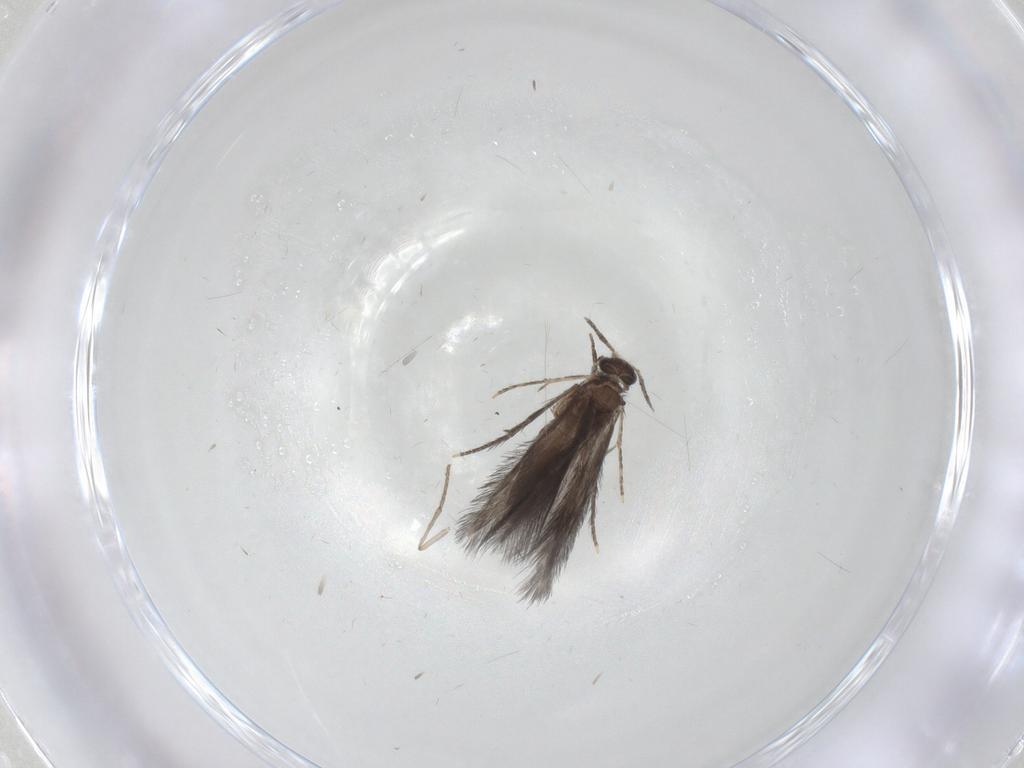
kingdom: Animalia
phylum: Arthropoda
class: Insecta
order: Trichoptera
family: Hydroptilidae
